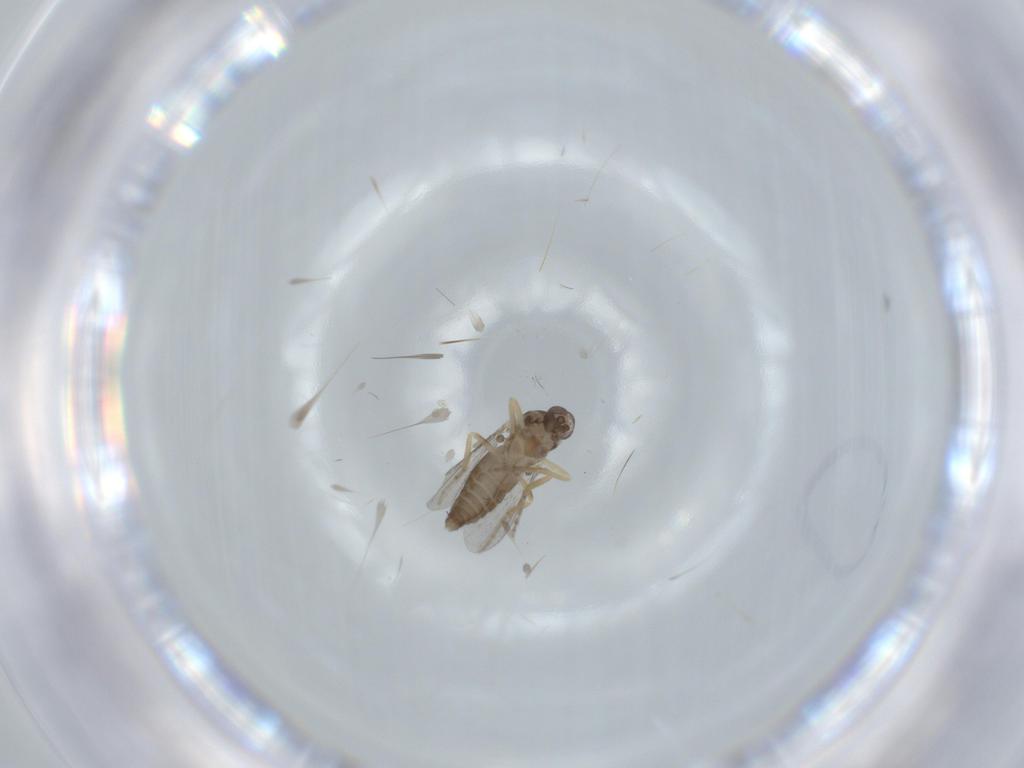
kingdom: Animalia
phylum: Arthropoda
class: Insecta
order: Diptera
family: Ceratopogonidae
